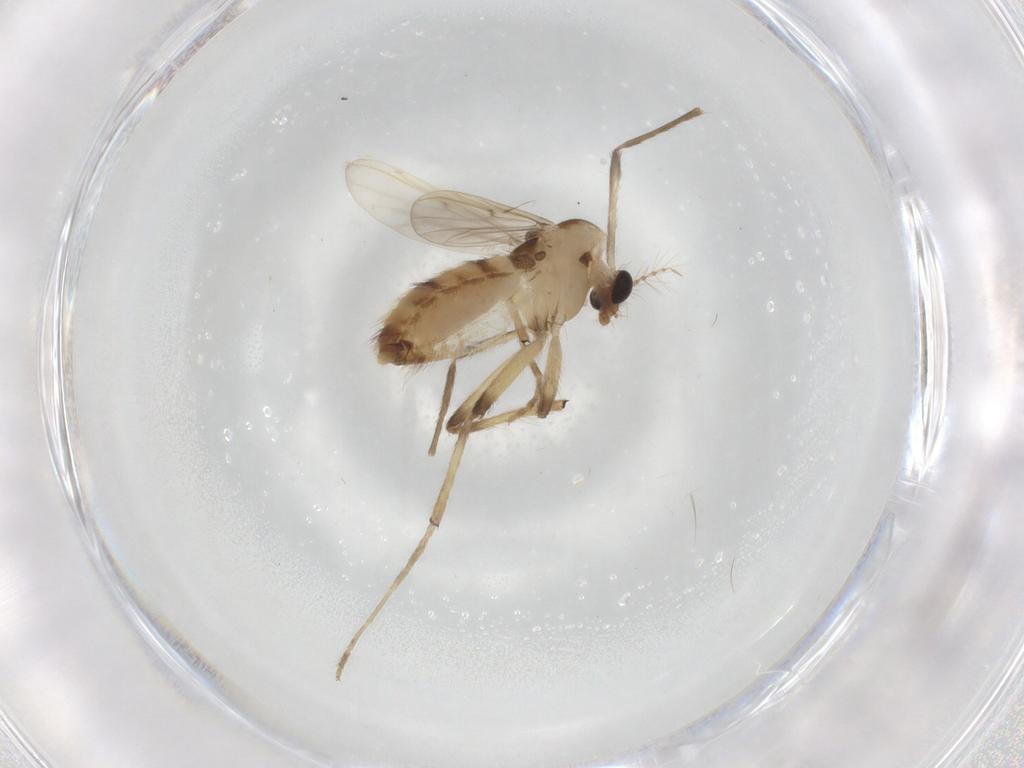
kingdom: Animalia
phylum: Arthropoda
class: Insecta
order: Diptera
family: Chironomidae
